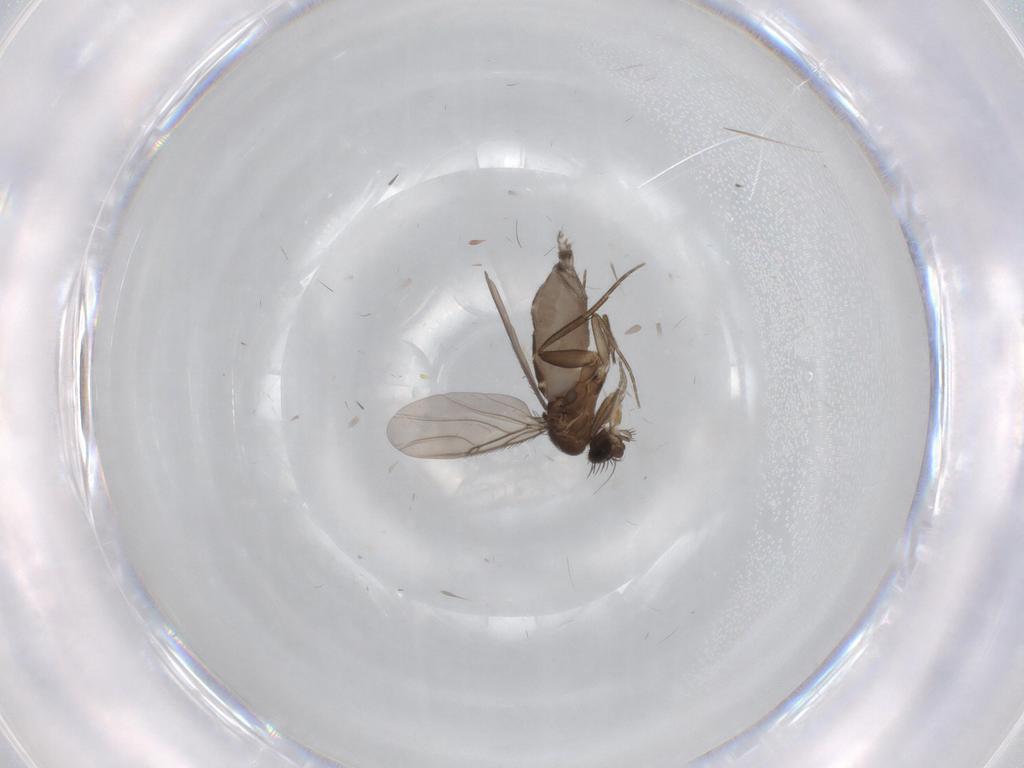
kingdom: Animalia
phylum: Arthropoda
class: Insecta
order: Diptera
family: Phoridae
